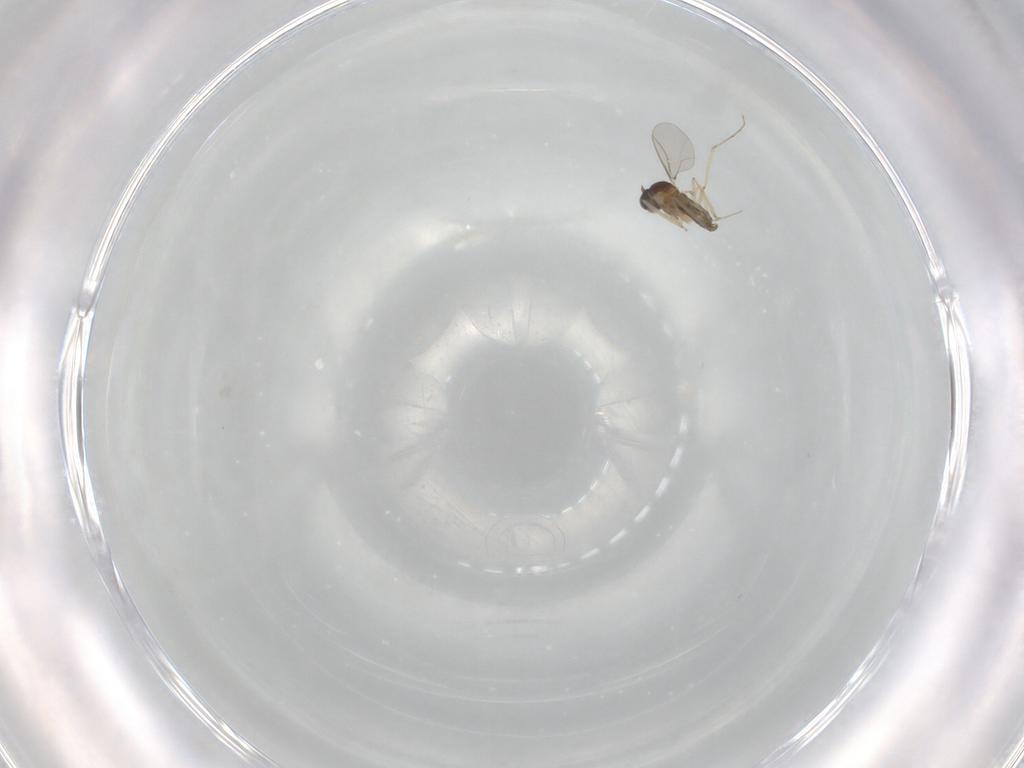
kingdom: Animalia
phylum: Arthropoda
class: Insecta
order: Diptera
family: Cecidomyiidae
